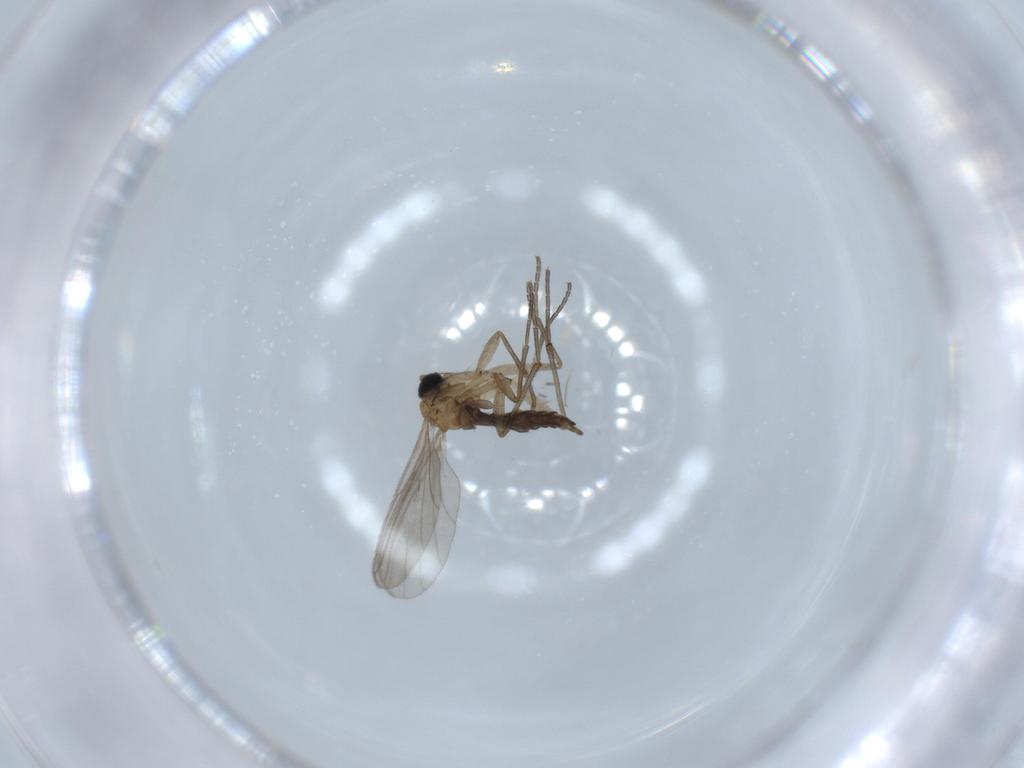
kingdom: Animalia
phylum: Arthropoda
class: Insecta
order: Diptera
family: Sciaridae
